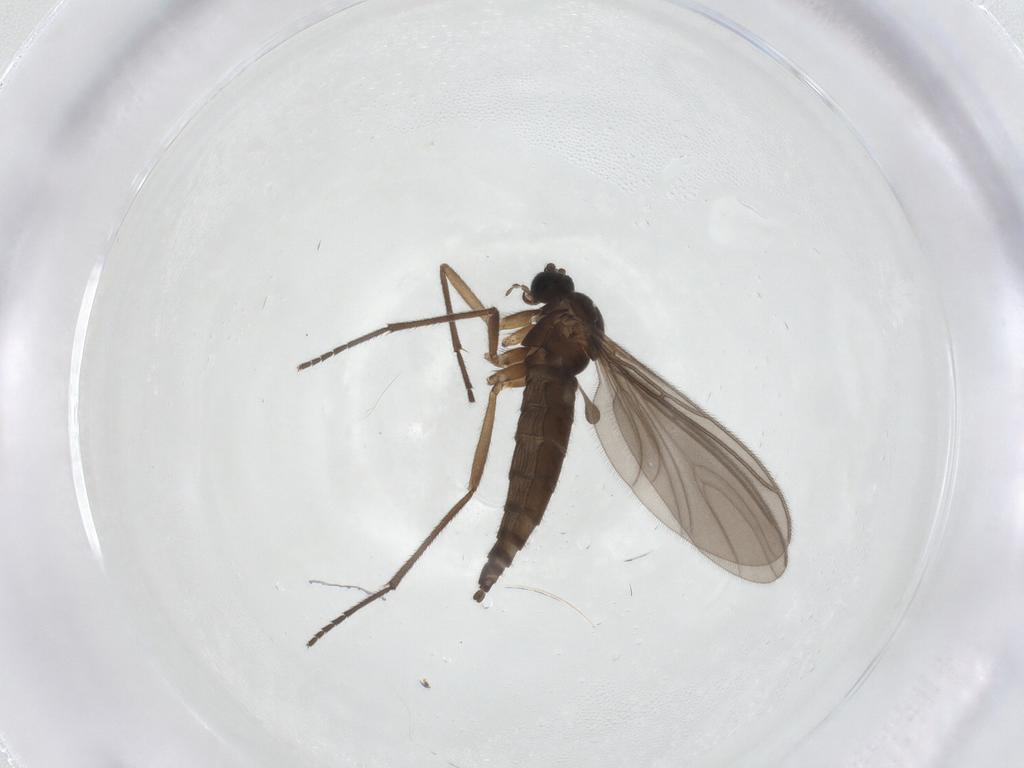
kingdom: Animalia
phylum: Arthropoda
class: Insecta
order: Diptera
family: Sciaridae
